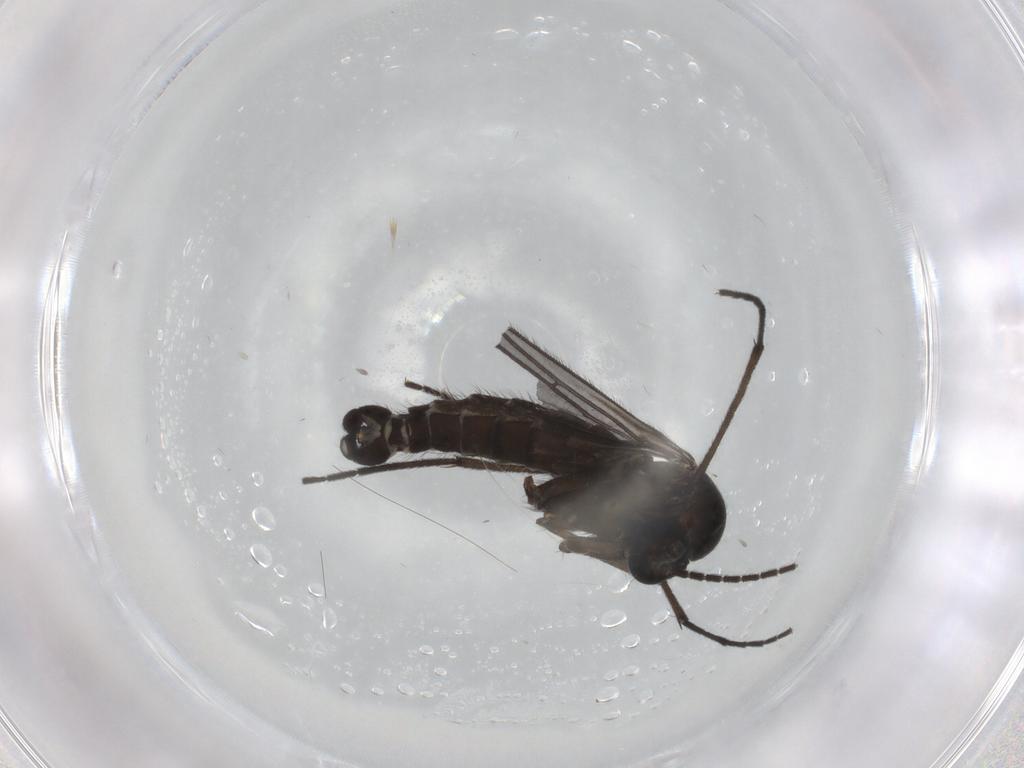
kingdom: Animalia
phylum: Arthropoda
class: Insecta
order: Diptera
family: Sciaridae
